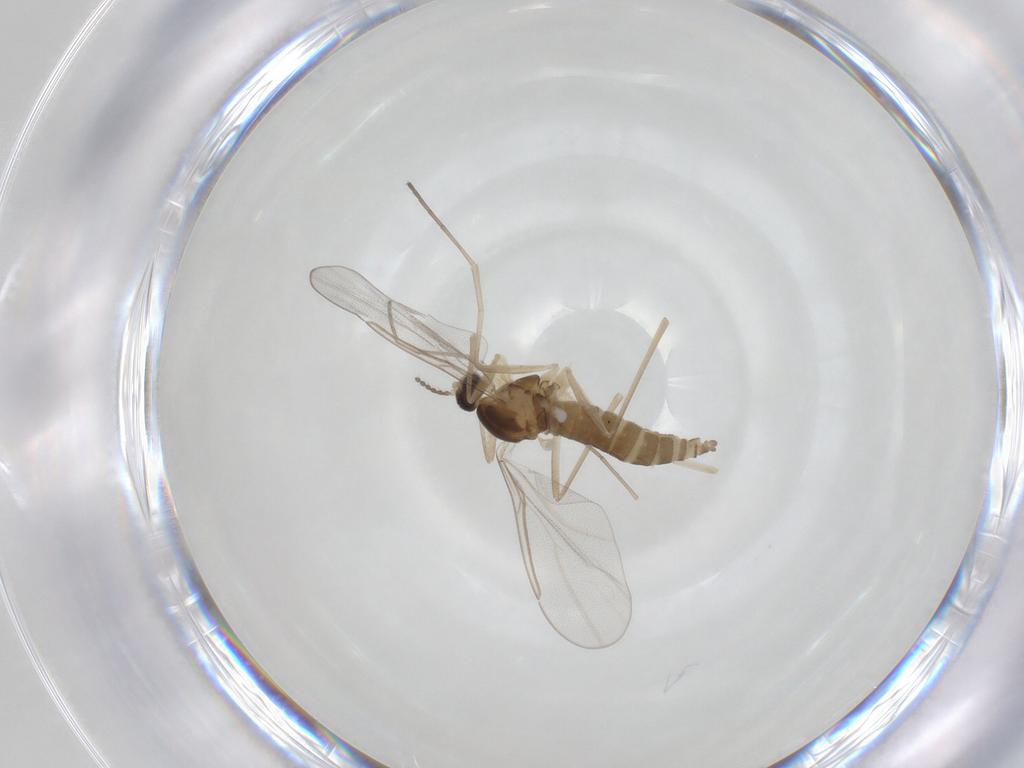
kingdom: Animalia
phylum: Arthropoda
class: Insecta
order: Diptera
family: Cecidomyiidae
